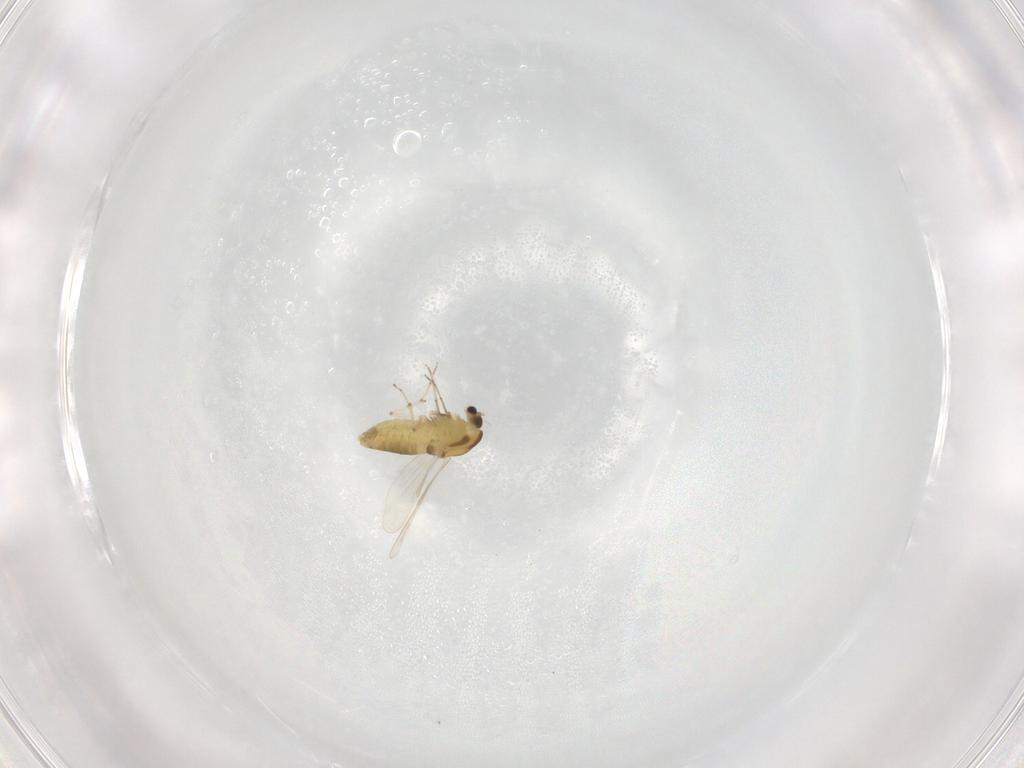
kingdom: Animalia
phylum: Arthropoda
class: Insecta
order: Diptera
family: Chironomidae
